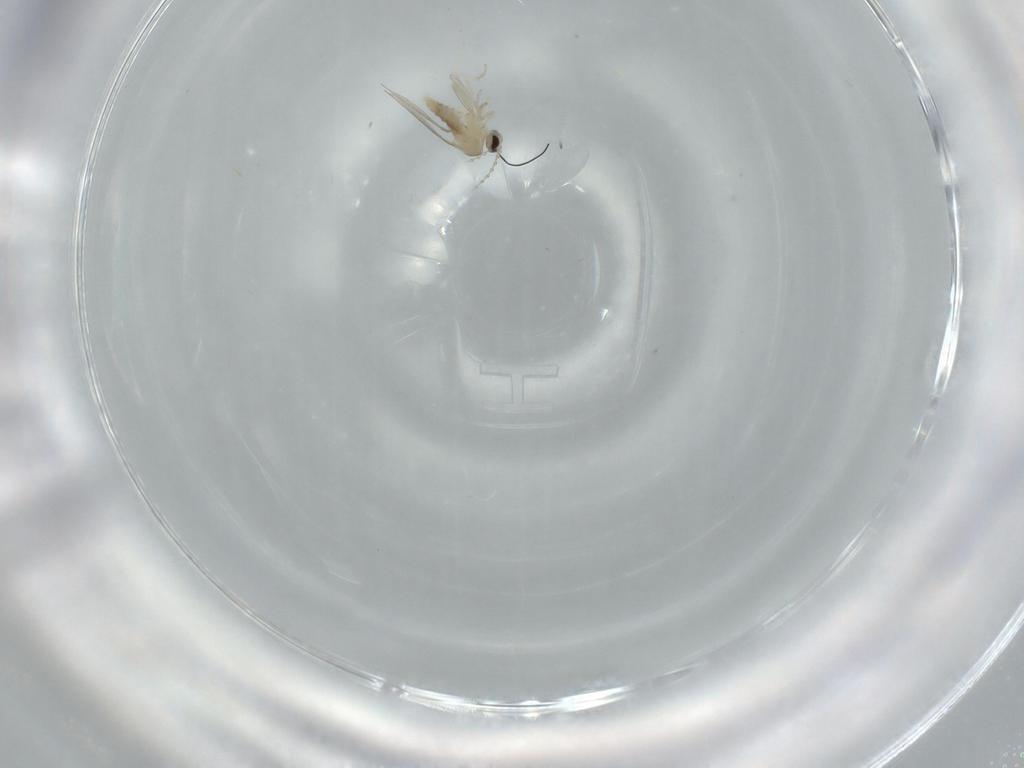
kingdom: Animalia
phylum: Arthropoda
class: Insecta
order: Diptera
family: Cecidomyiidae
